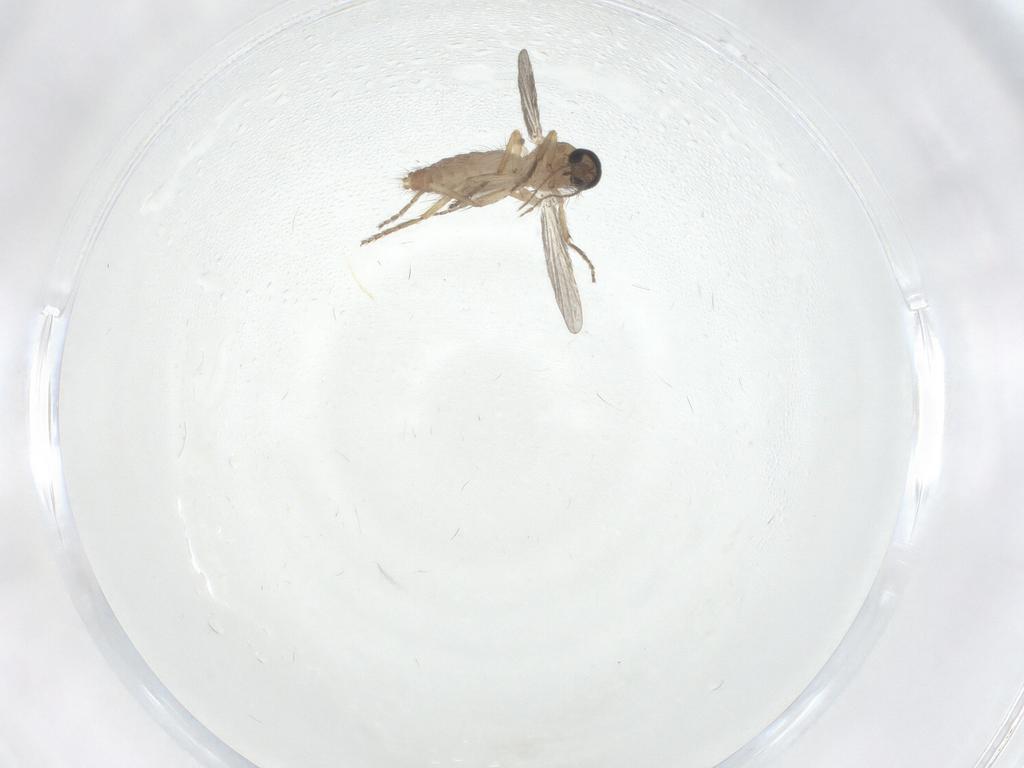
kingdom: Animalia
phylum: Arthropoda
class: Insecta
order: Diptera
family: Ceratopogonidae
